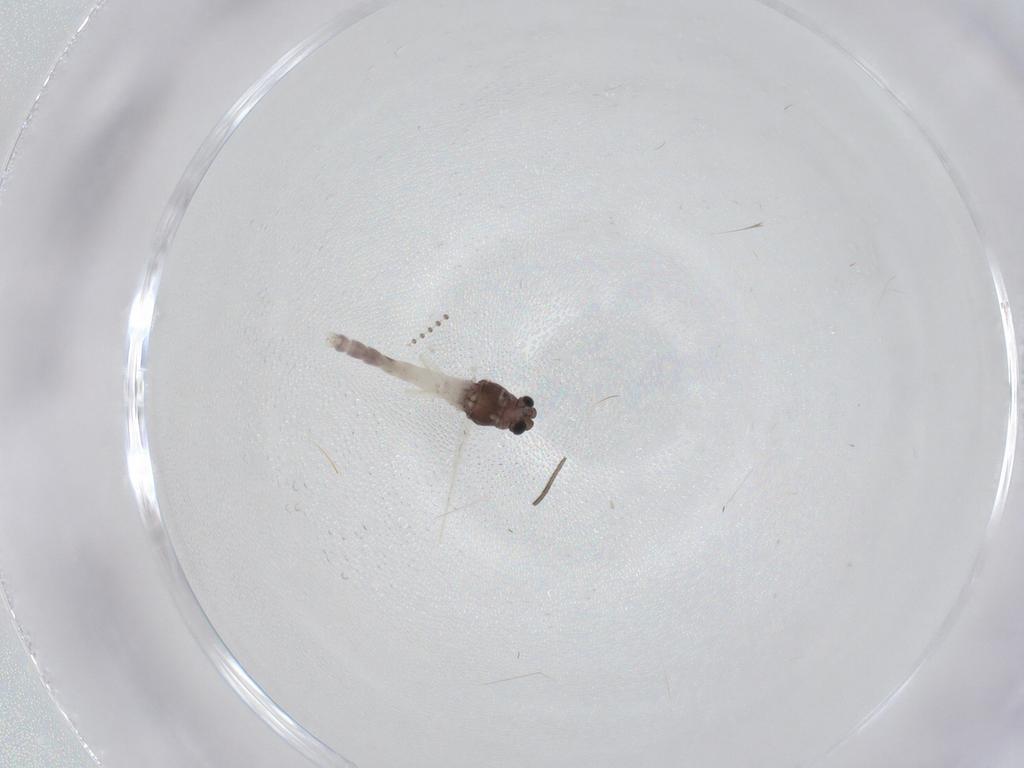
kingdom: Animalia
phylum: Arthropoda
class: Insecta
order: Diptera
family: Chironomidae
